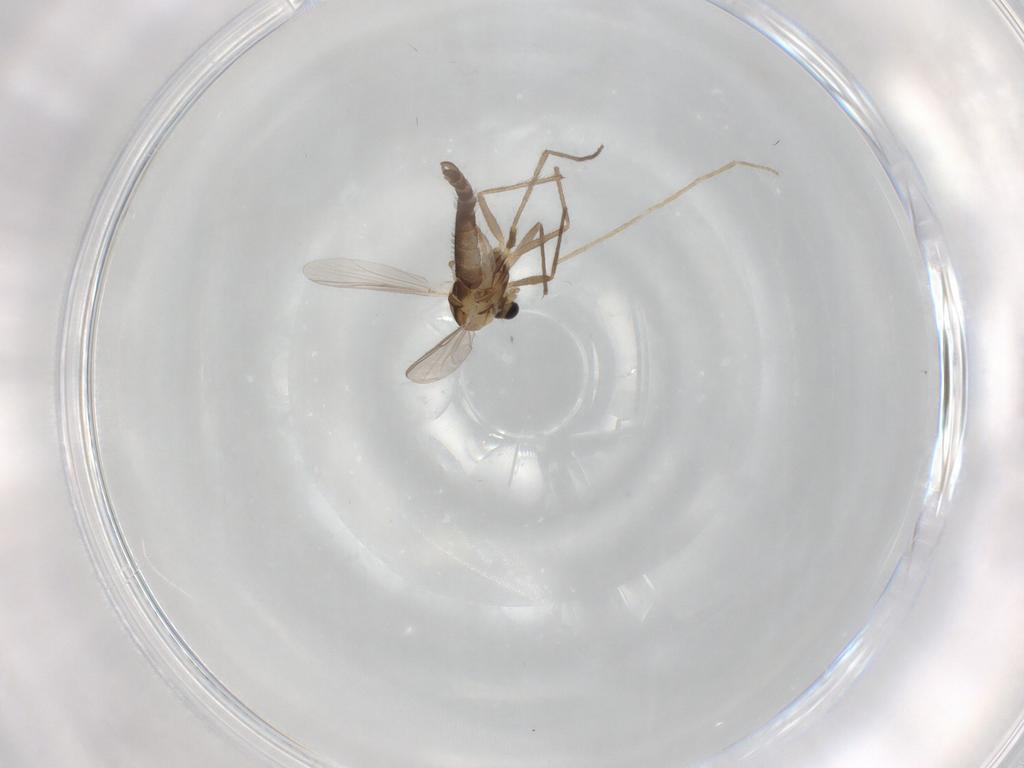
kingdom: Animalia
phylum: Arthropoda
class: Insecta
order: Diptera
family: Chironomidae
